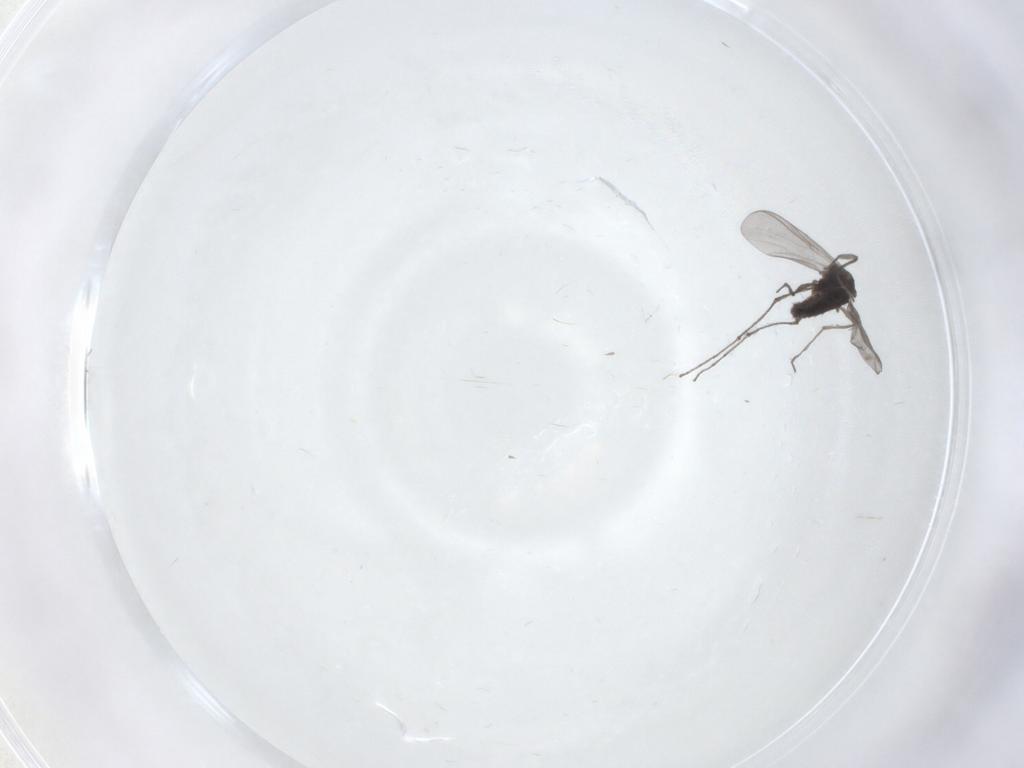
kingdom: Animalia
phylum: Arthropoda
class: Insecta
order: Diptera
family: Chironomidae
